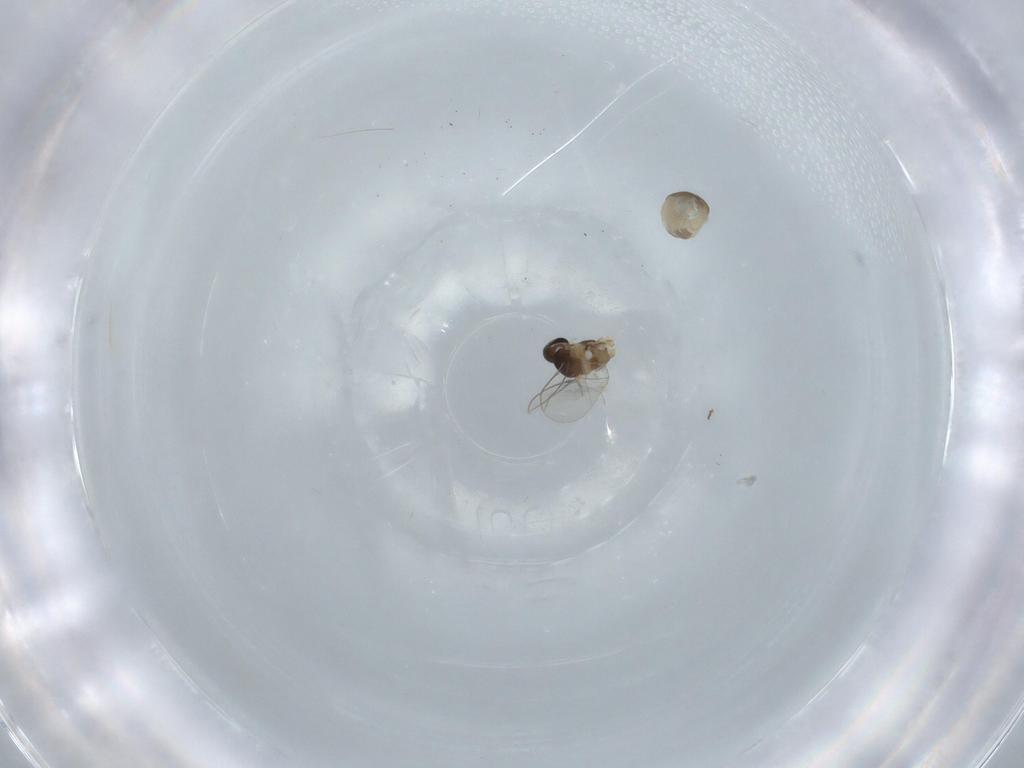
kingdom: Animalia
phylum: Arthropoda
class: Insecta
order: Diptera
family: Cecidomyiidae
